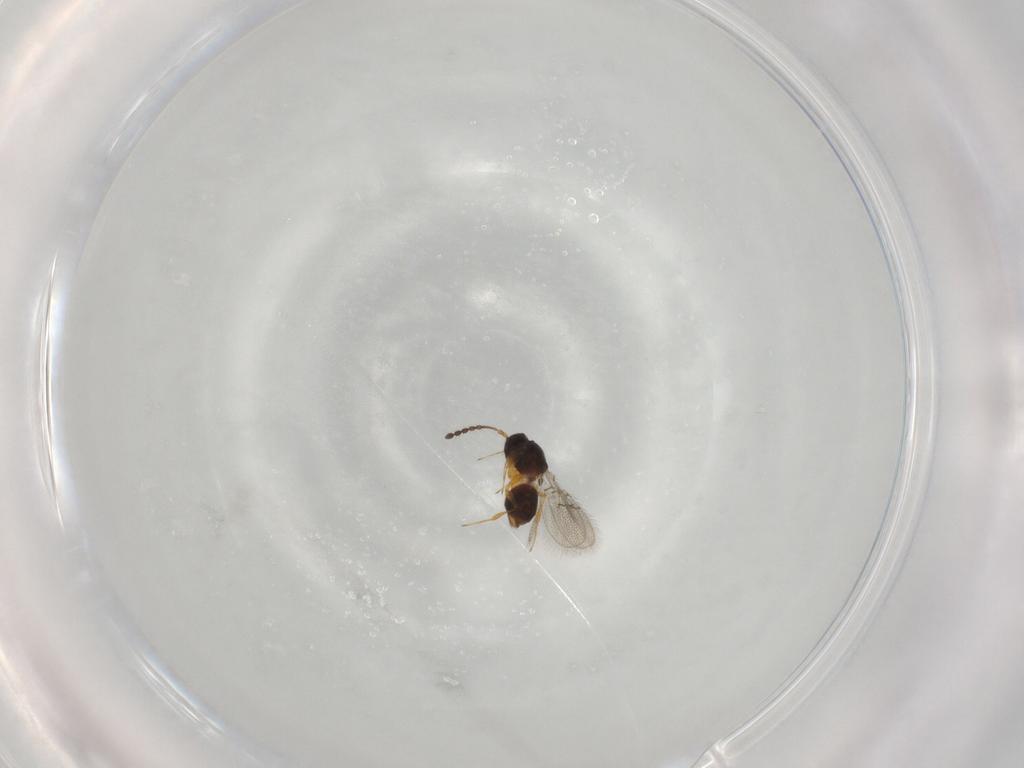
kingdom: Animalia
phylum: Arthropoda
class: Insecta
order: Hymenoptera
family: Figitidae
